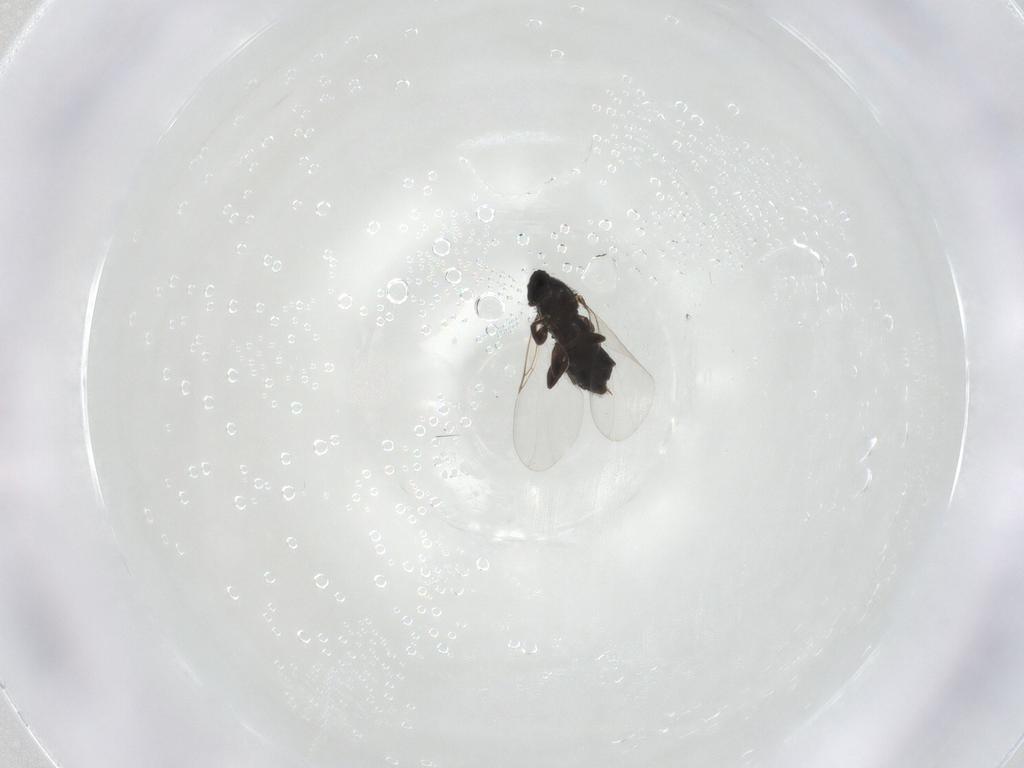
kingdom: Animalia
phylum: Arthropoda
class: Insecta
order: Diptera
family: Scatopsidae
